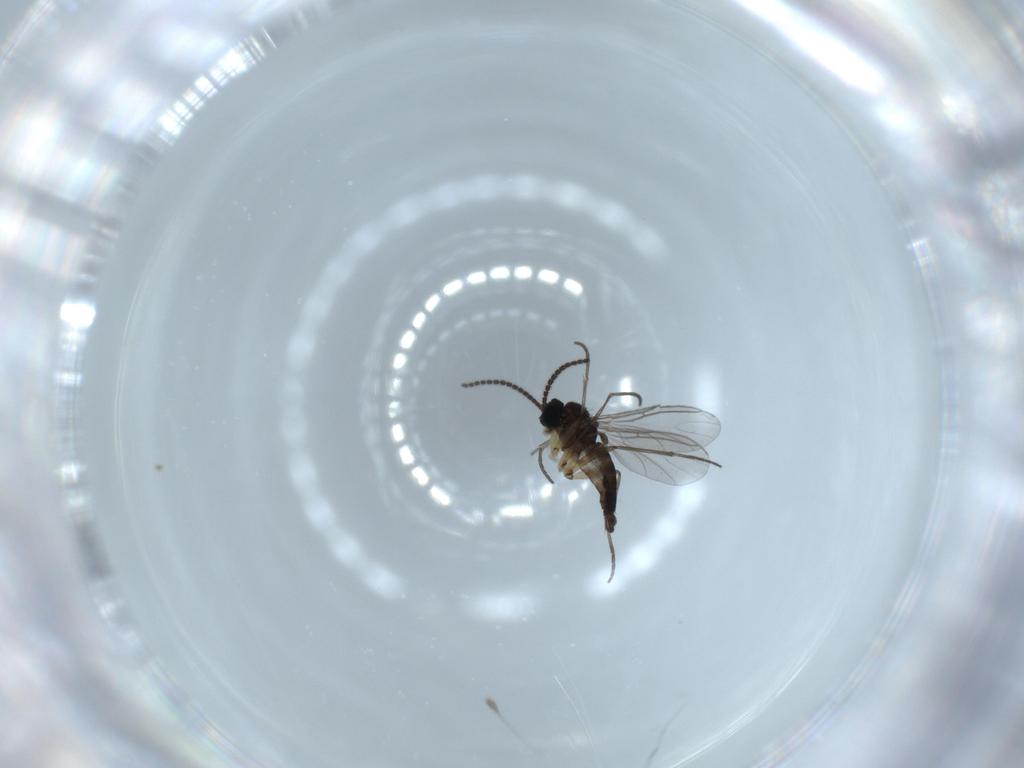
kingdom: Animalia
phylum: Arthropoda
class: Insecta
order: Diptera
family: Sciaridae
